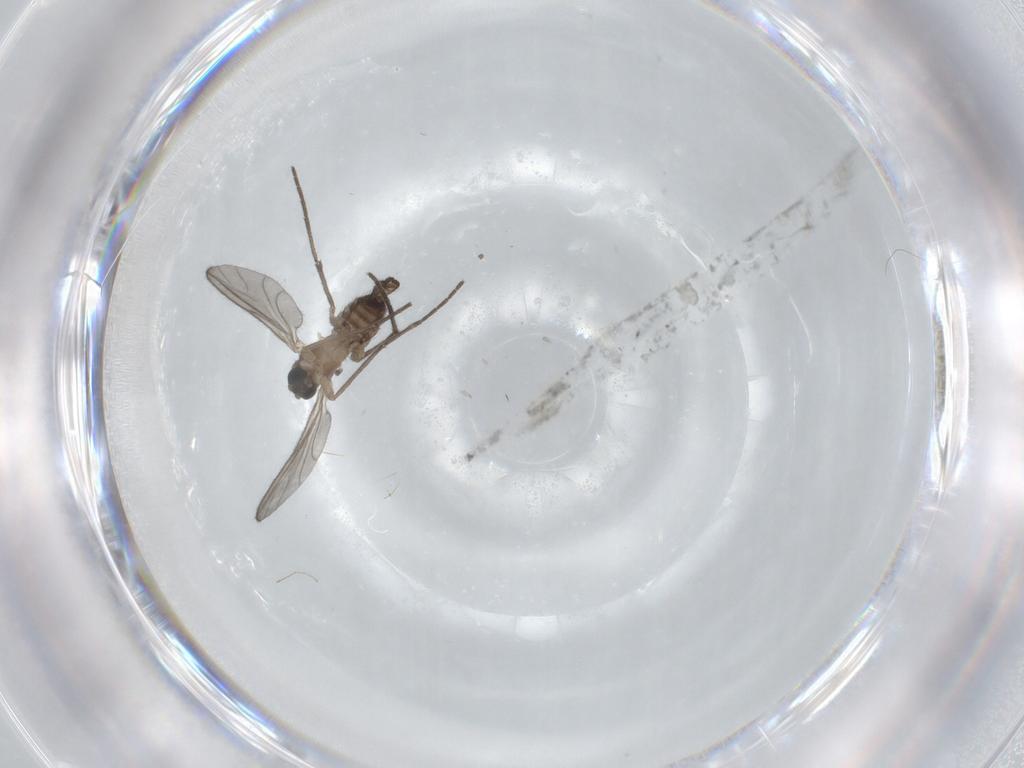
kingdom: Animalia
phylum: Arthropoda
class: Insecta
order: Diptera
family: Sciaridae
